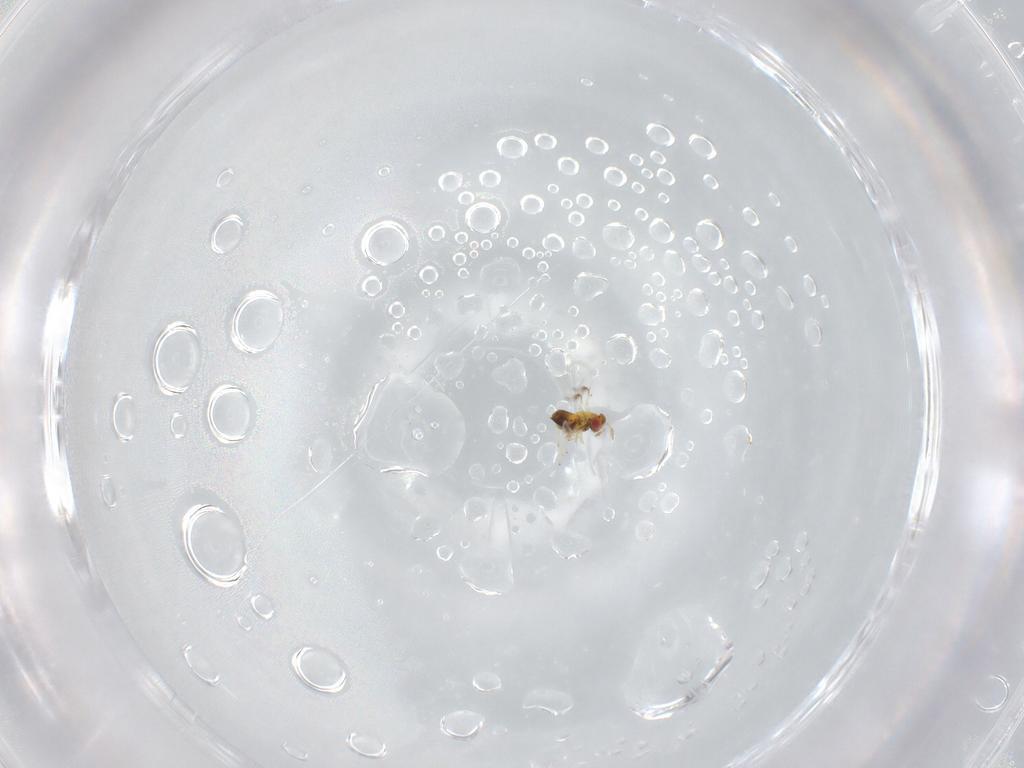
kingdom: Animalia
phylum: Arthropoda
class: Insecta
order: Hymenoptera
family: Trichogrammatidae
